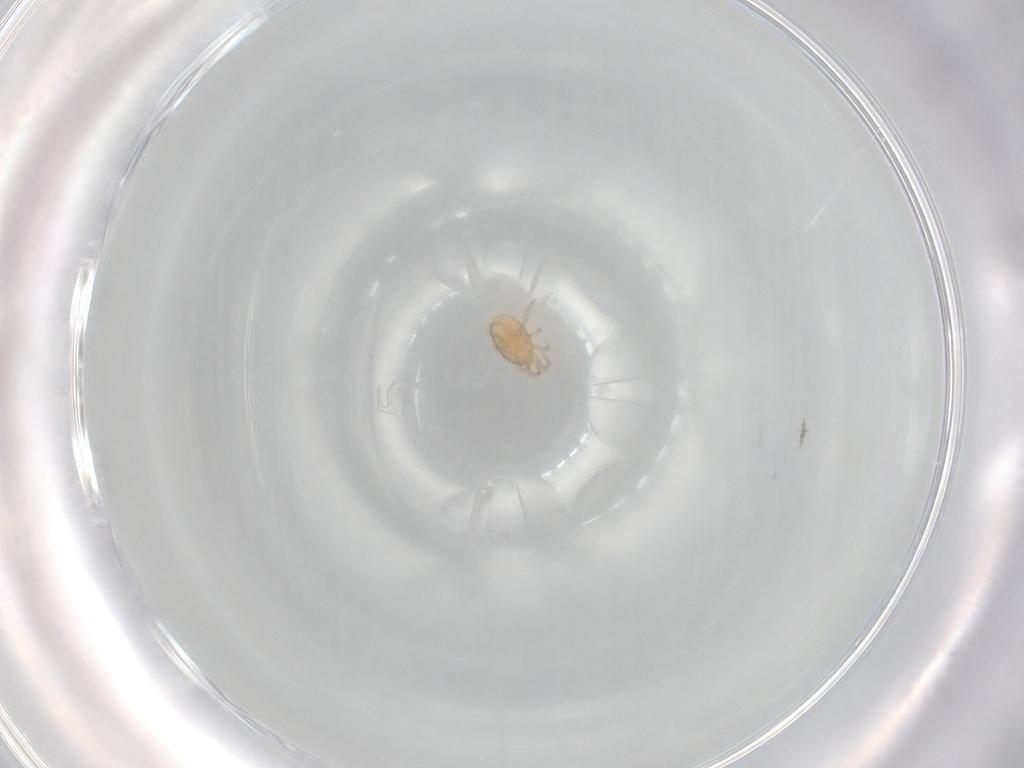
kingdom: Animalia
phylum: Arthropoda
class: Arachnida
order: Mesostigmata
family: Laelapidae
